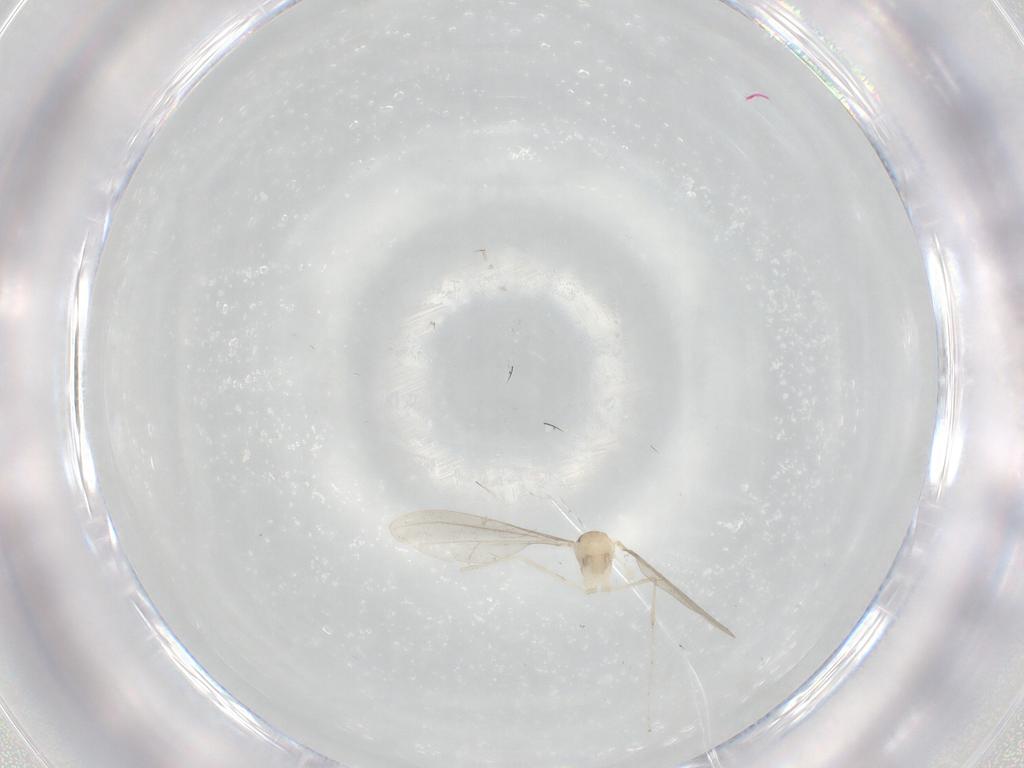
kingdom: Animalia
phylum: Arthropoda
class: Insecta
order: Diptera
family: Cecidomyiidae
